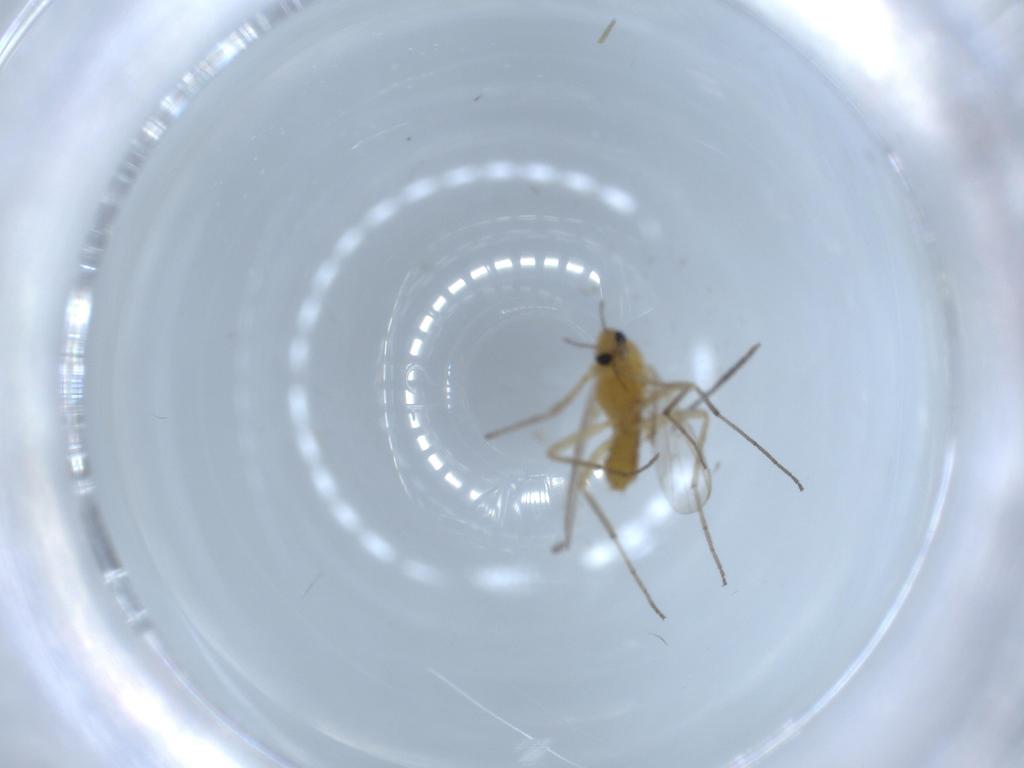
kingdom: Animalia
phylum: Arthropoda
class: Insecta
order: Diptera
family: Chironomidae
